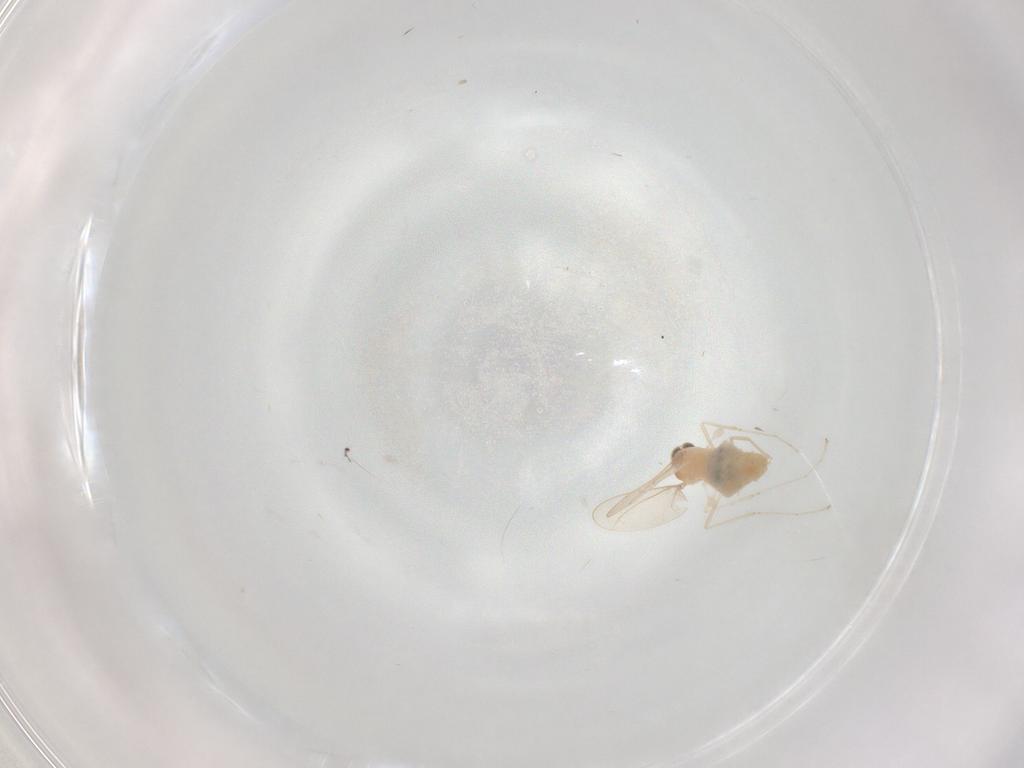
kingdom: Animalia
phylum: Arthropoda
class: Insecta
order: Diptera
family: Cecidomyiidae
